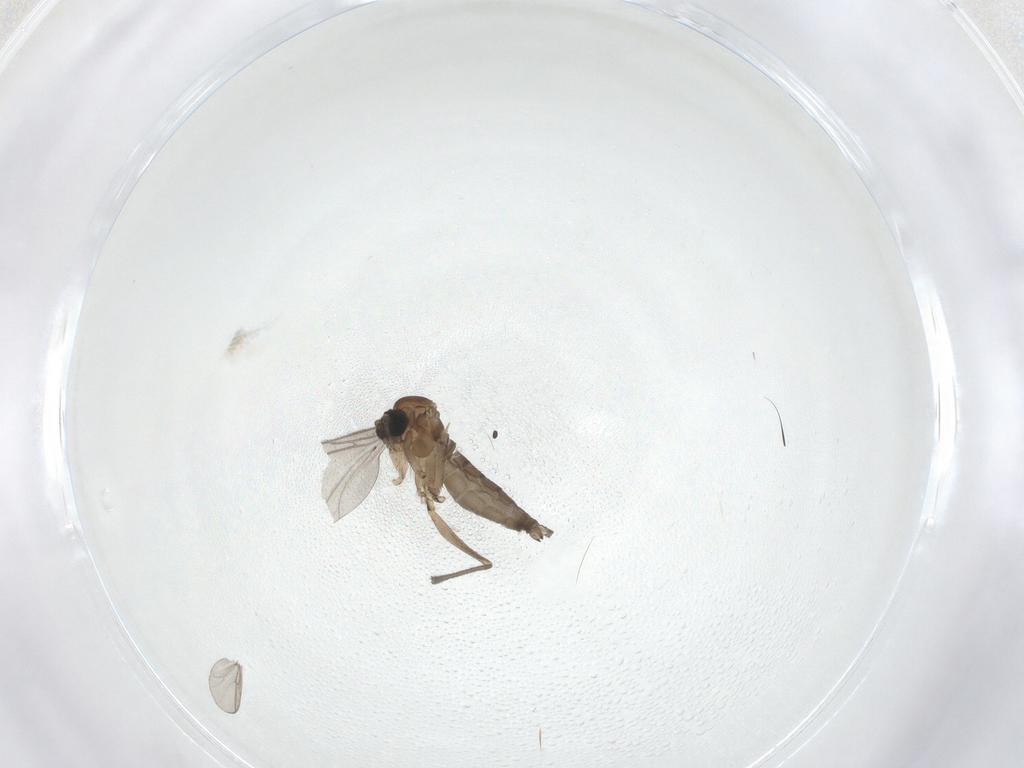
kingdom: Animalia
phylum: Arthropoda
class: Insecta
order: Diptera
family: Sciaridae
